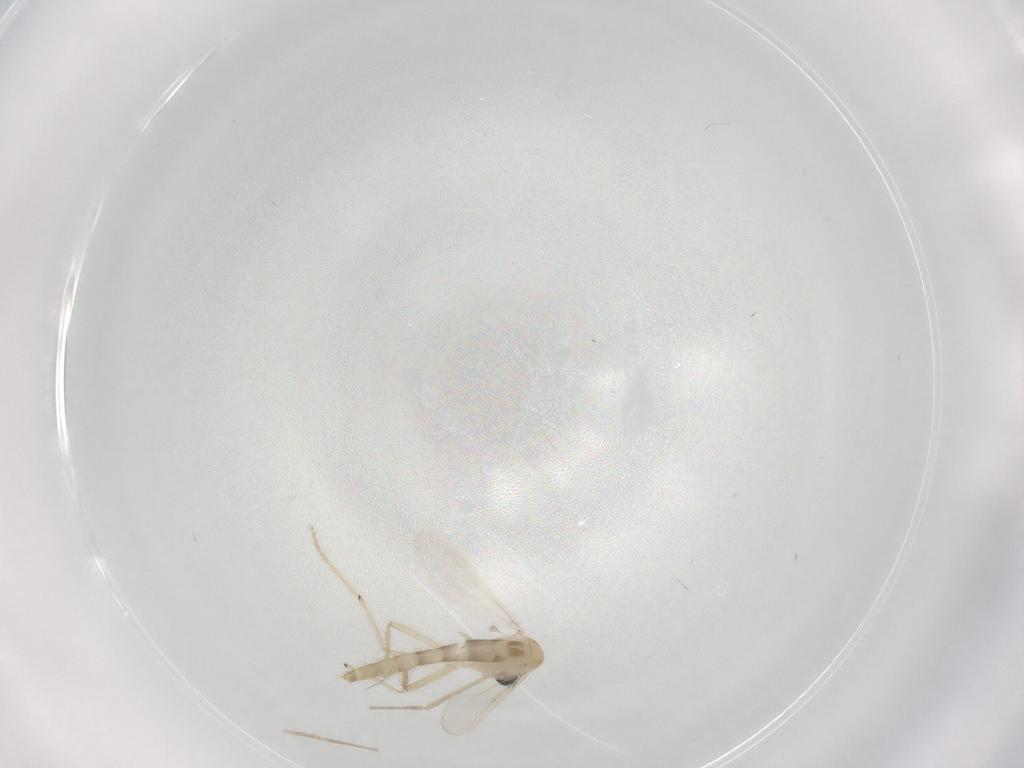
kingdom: Animalia
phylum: Arthropoda
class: Insecta
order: Diptera
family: Chironomidae
